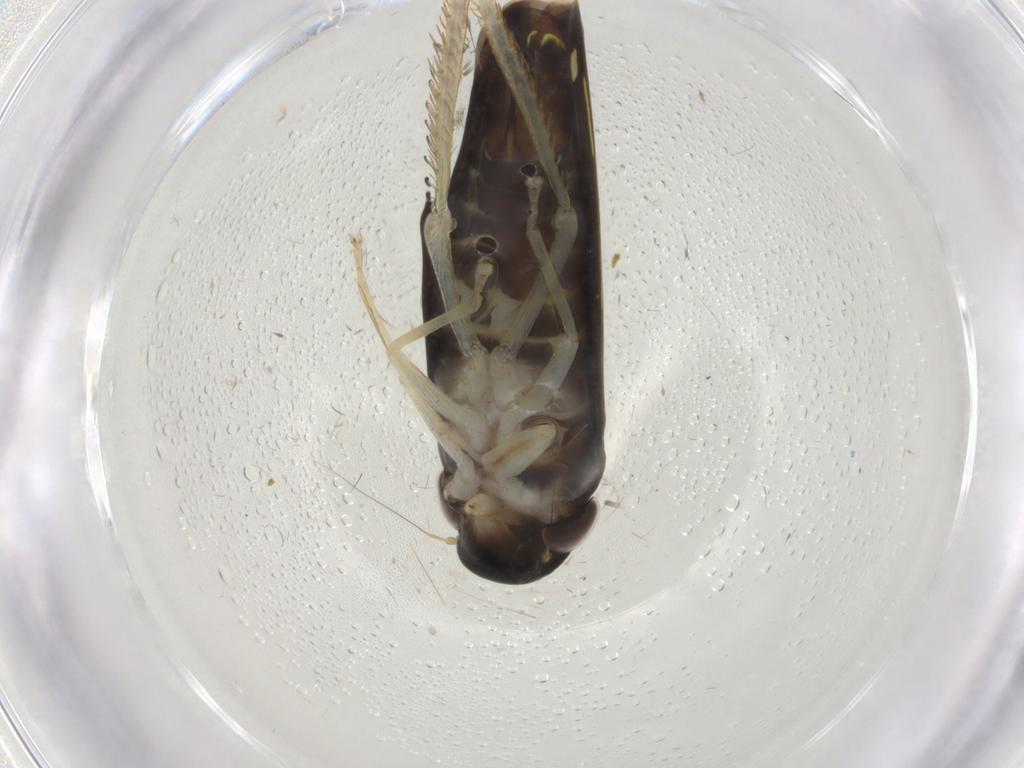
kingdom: Animalia
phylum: Arthropoda
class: Insecta
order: Hemiptera
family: Cicadellidae
